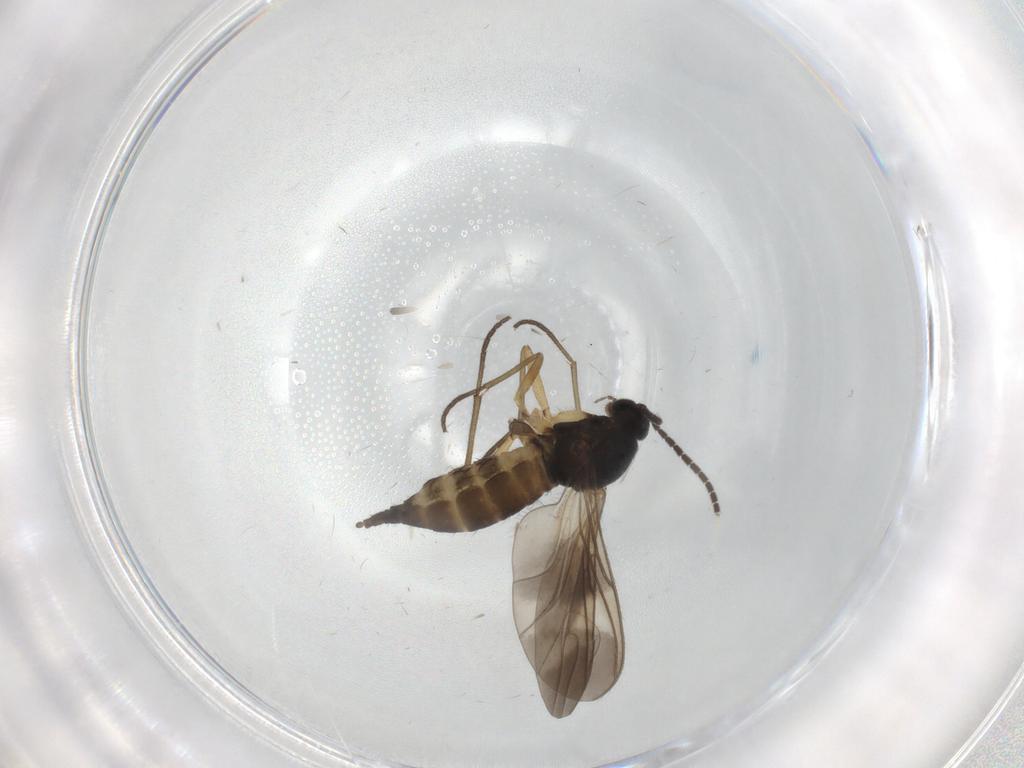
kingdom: Animalia
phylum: Arthropoda
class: Insecta
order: Diptera
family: Sciaridae
